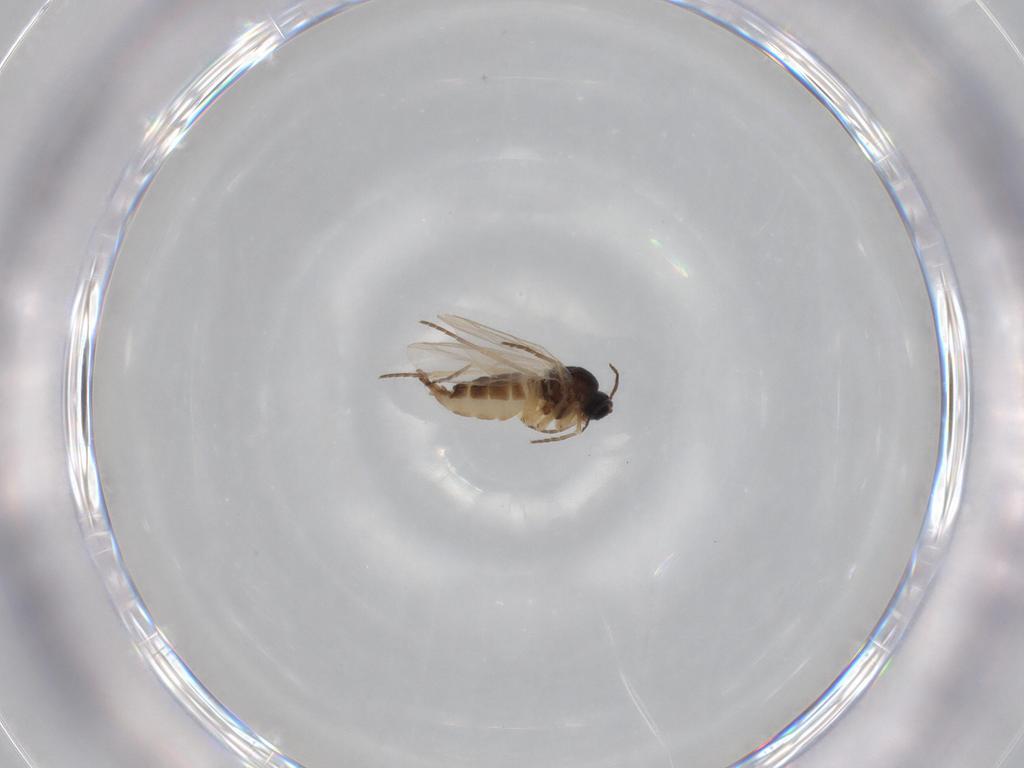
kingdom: Animalia
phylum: Arthropoda
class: Insecta
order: Diptera
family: Sciaridae
